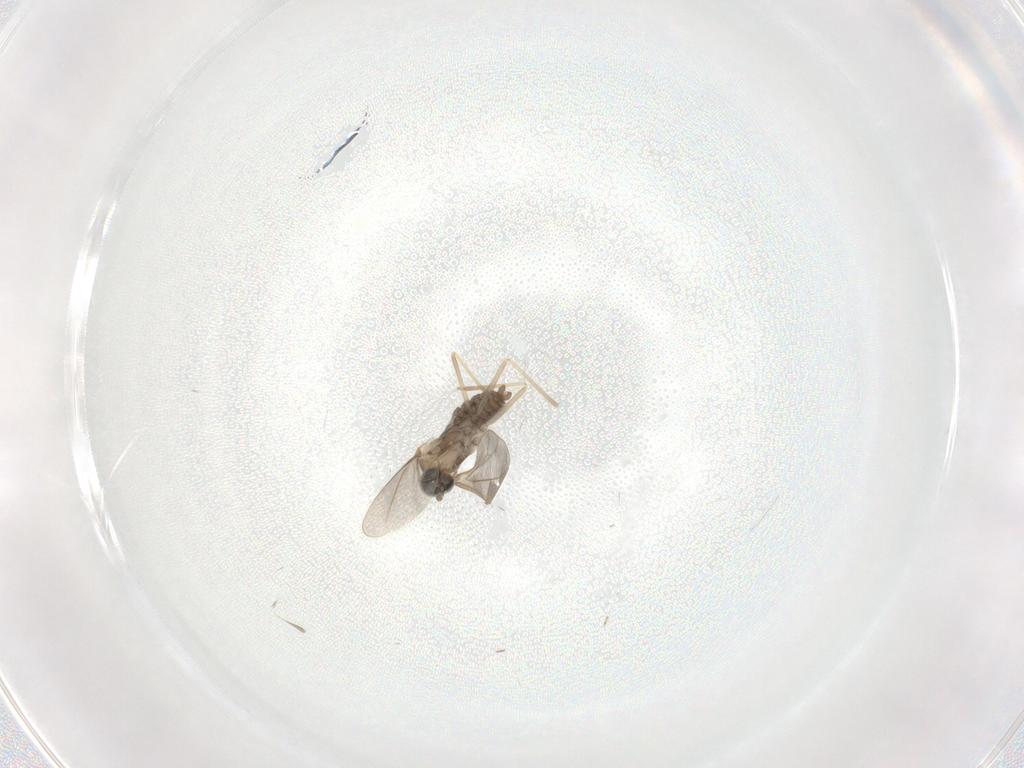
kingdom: Animalia
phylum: Arthropoda
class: Insecta
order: Diptera
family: Cecidomyiidae
